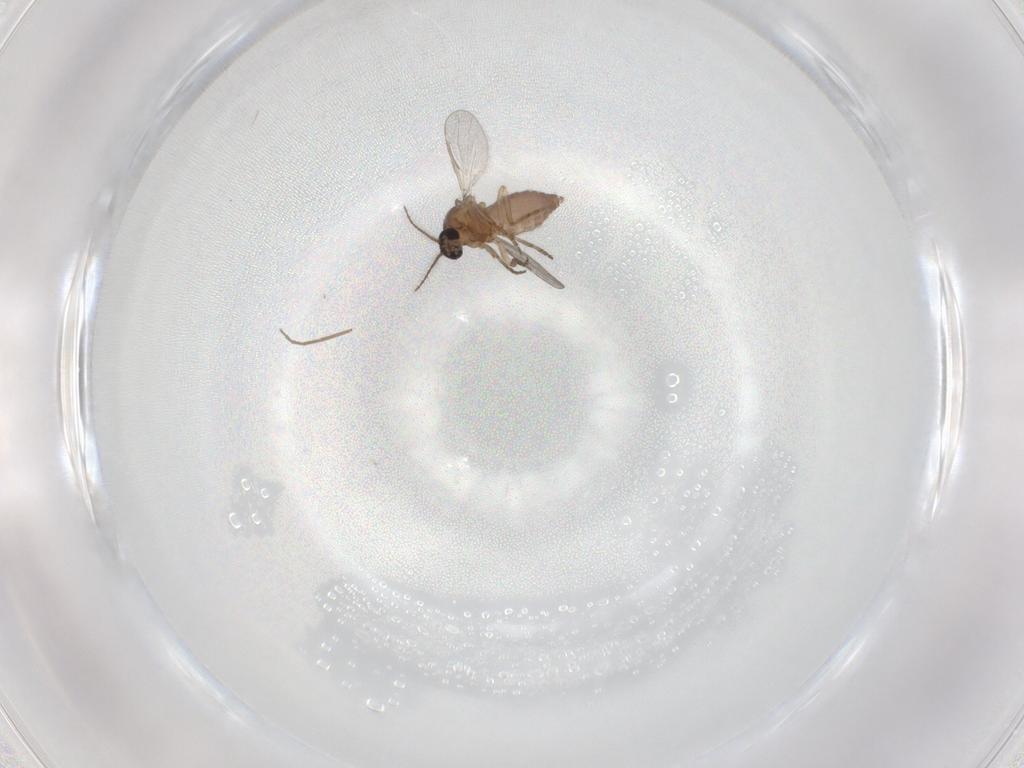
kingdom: Animalia
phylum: Arthropoda
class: Insecta
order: Diptera
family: Ceratopogonidae
